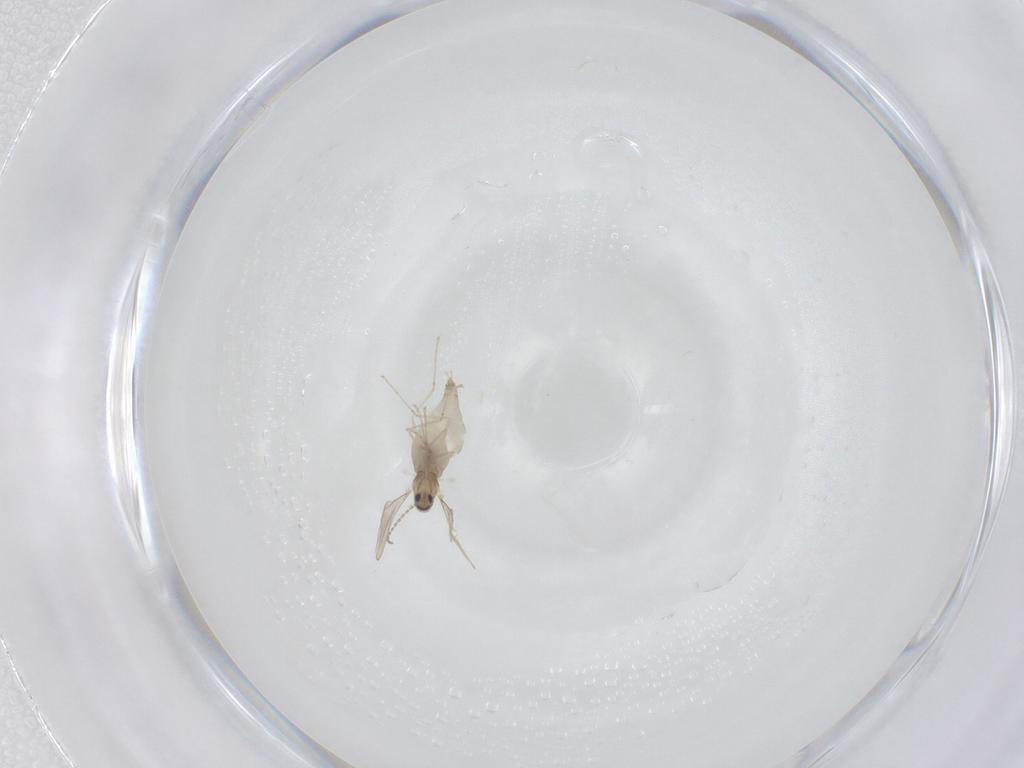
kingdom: Animalia
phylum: Arthropoda
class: Insecta
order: Diptera
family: Cecidomyiidae
